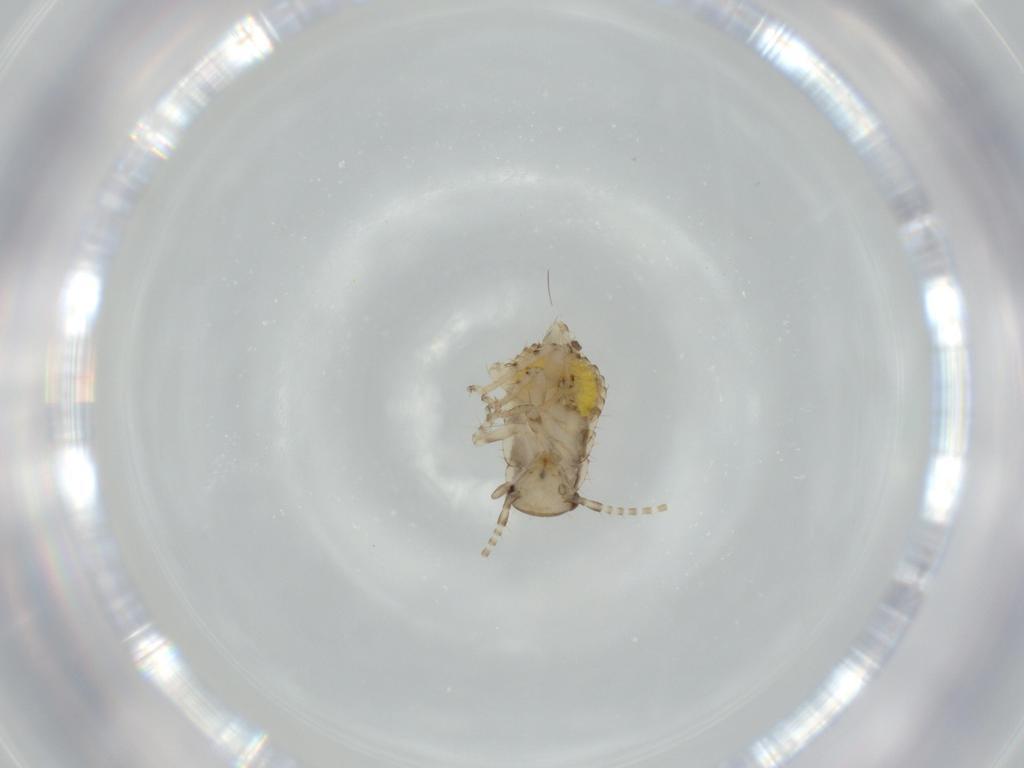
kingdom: Animalia
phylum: Arthropoda
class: Insecta
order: Blattodea
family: Ectobiidae
